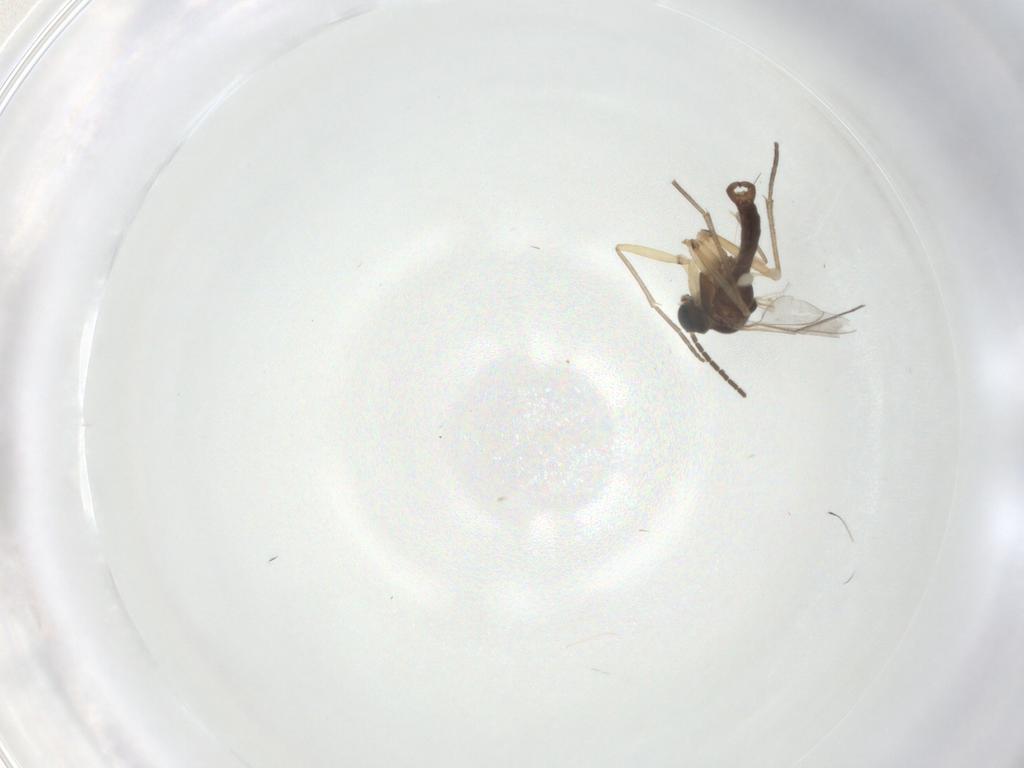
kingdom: Animalia
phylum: Arthropoda
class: Insecta
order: Diptera
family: Sciaridae
